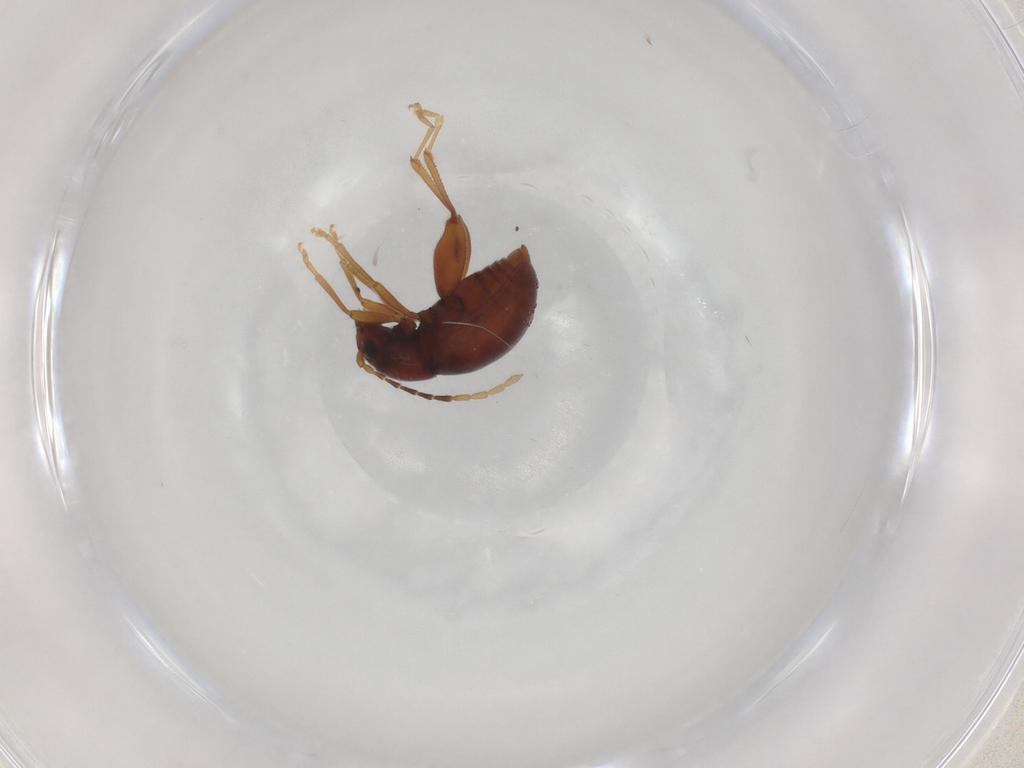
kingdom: Animalia
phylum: Arthropoda
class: Insecta
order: Coleoptera
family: Chrysomelidae
